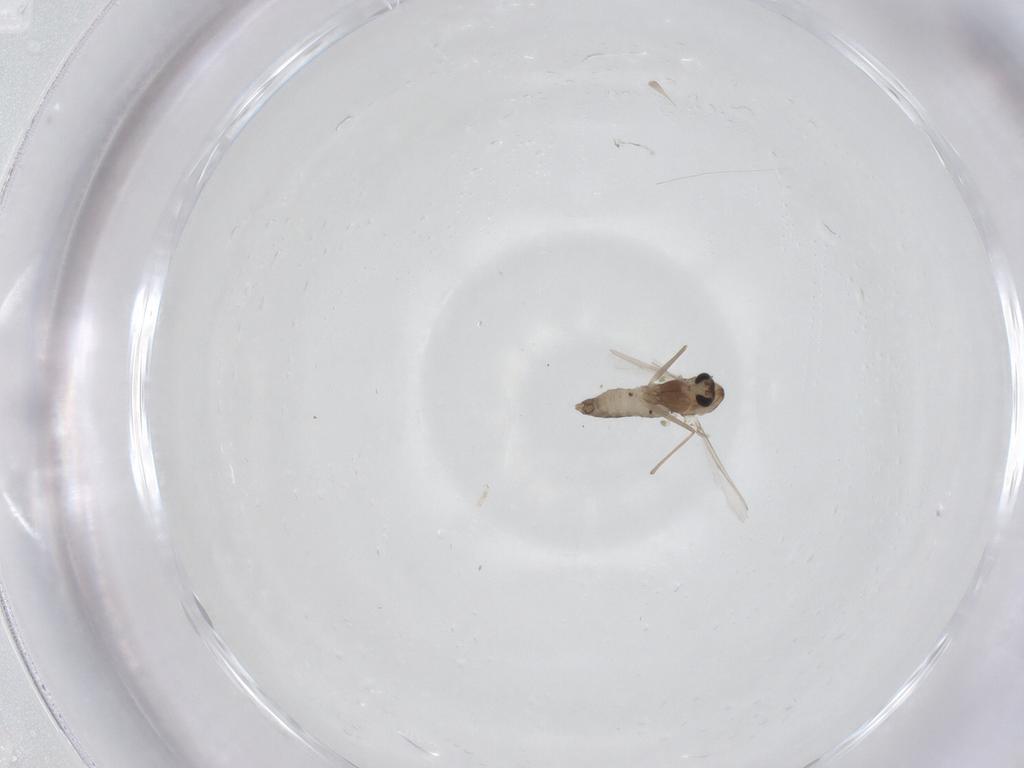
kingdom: Animalia
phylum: Arthropoda
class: Insecta
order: Diptera
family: Chironomidae
